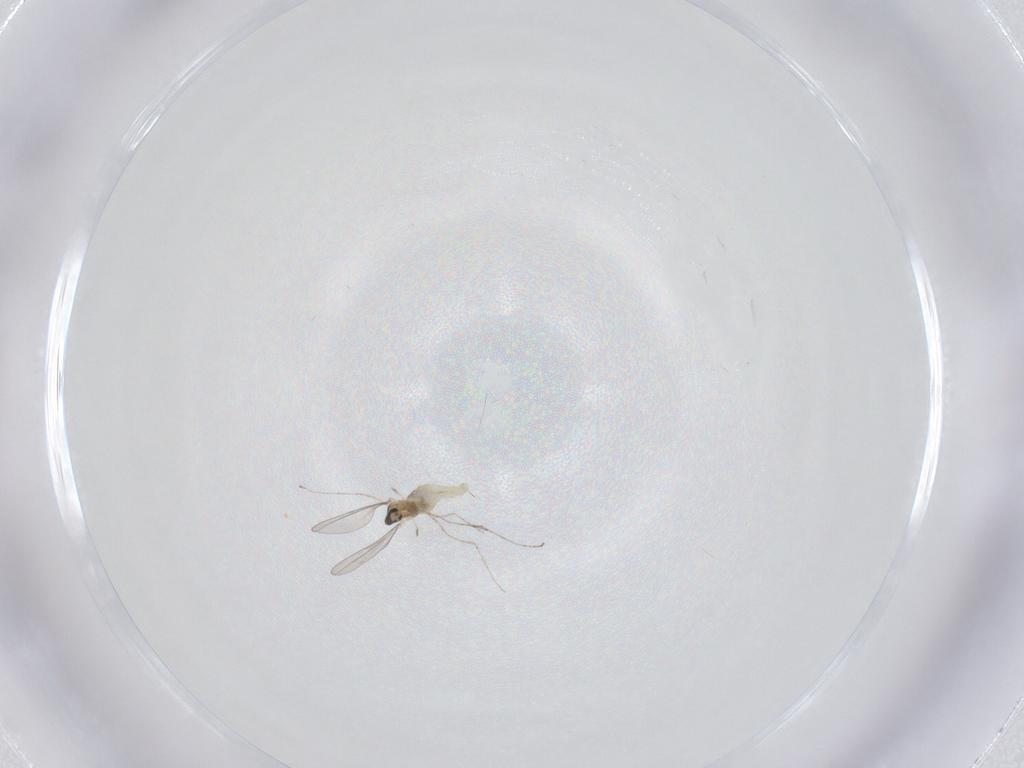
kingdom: Animalia
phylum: Arthropoda
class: Insecta
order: Diptera
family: Cecidomyiidae
